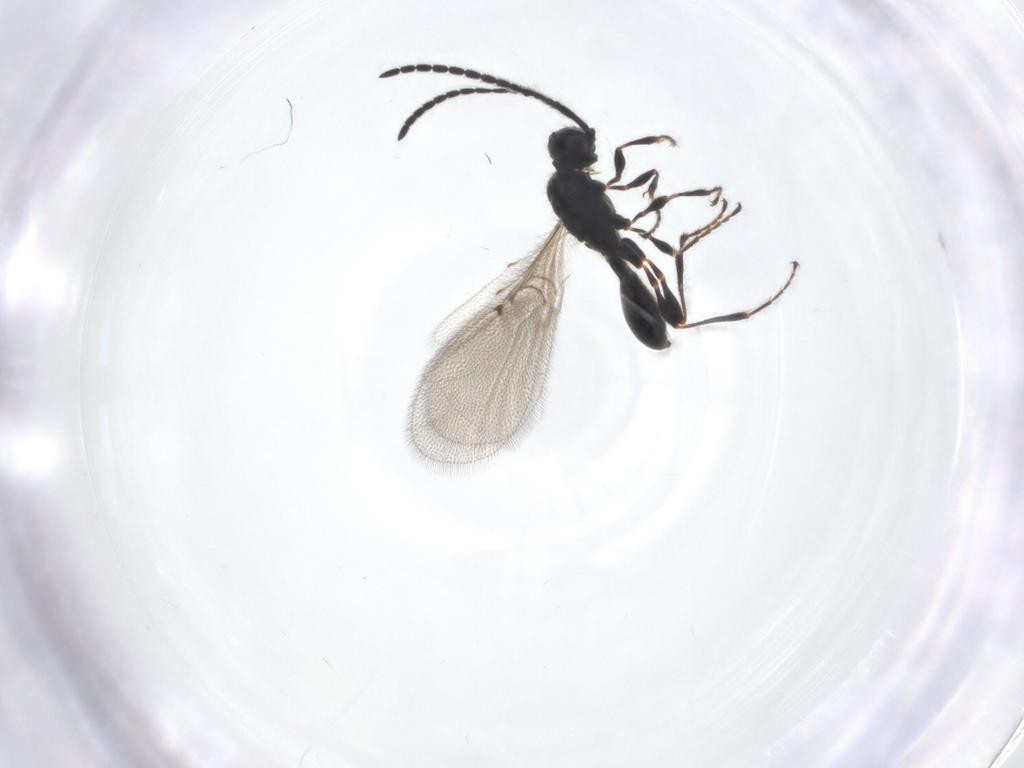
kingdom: Animalia
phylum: Arthropoda
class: Insecta
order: Hymenoptera
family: Diapriidae
